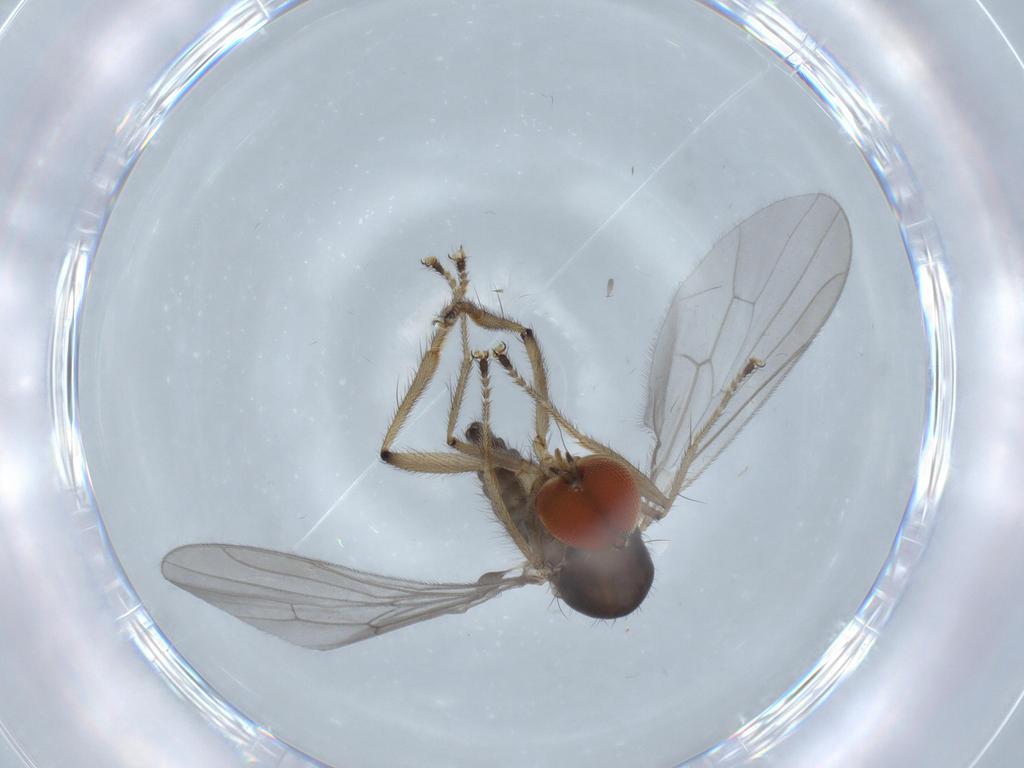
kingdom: Animalia
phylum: Arthropoda
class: Insecta
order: Diptera
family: Hybotidae
